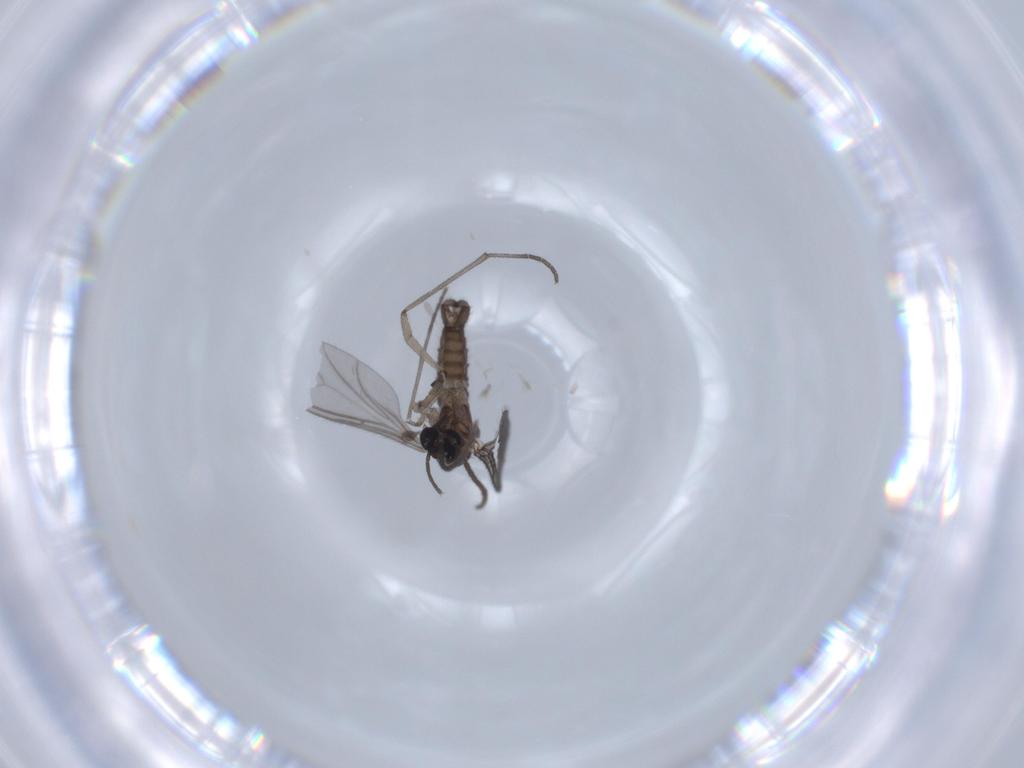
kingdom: Animalia
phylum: Arthropoda
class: Insecta
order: Diptera
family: Sciaridae
